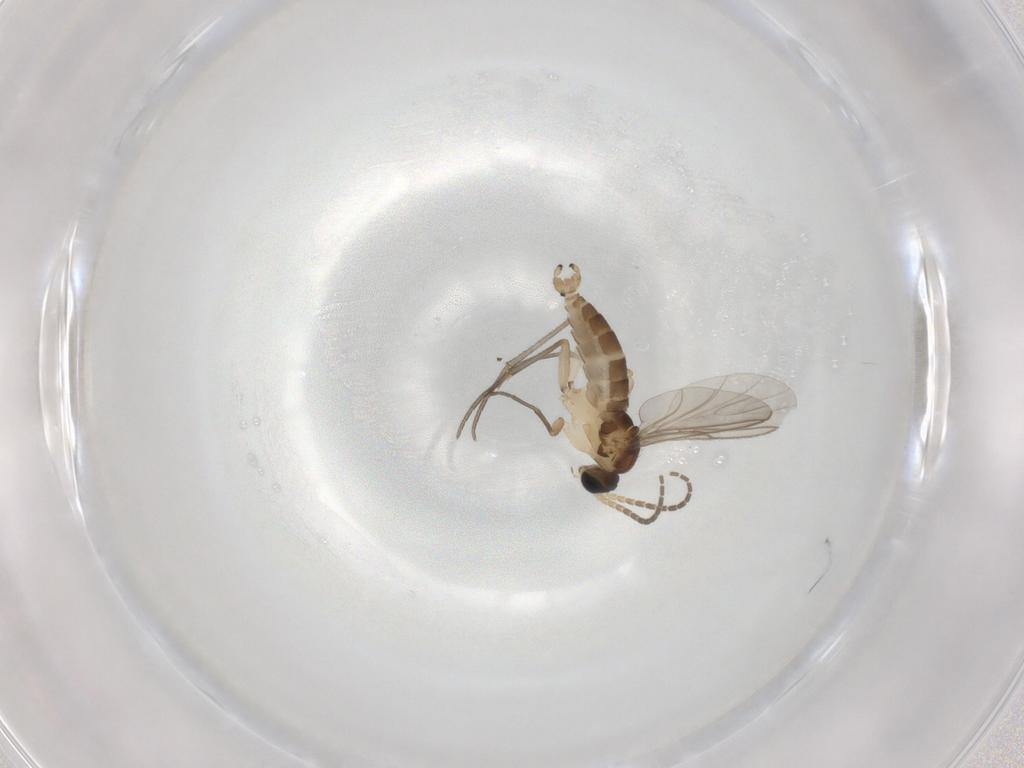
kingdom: Animalia
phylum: Arthropoda
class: Insecta
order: Diptera
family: Sciaridae
